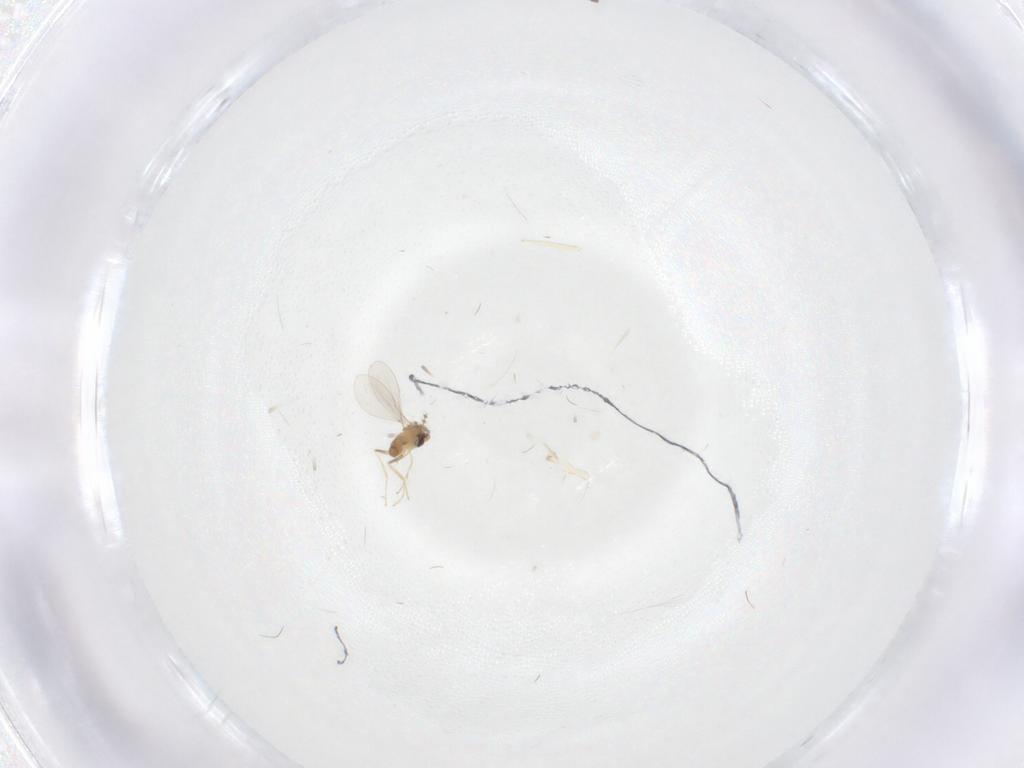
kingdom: Animalia
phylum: Arthropoda
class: Insecta
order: Diptera
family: Cecidomyiidae
